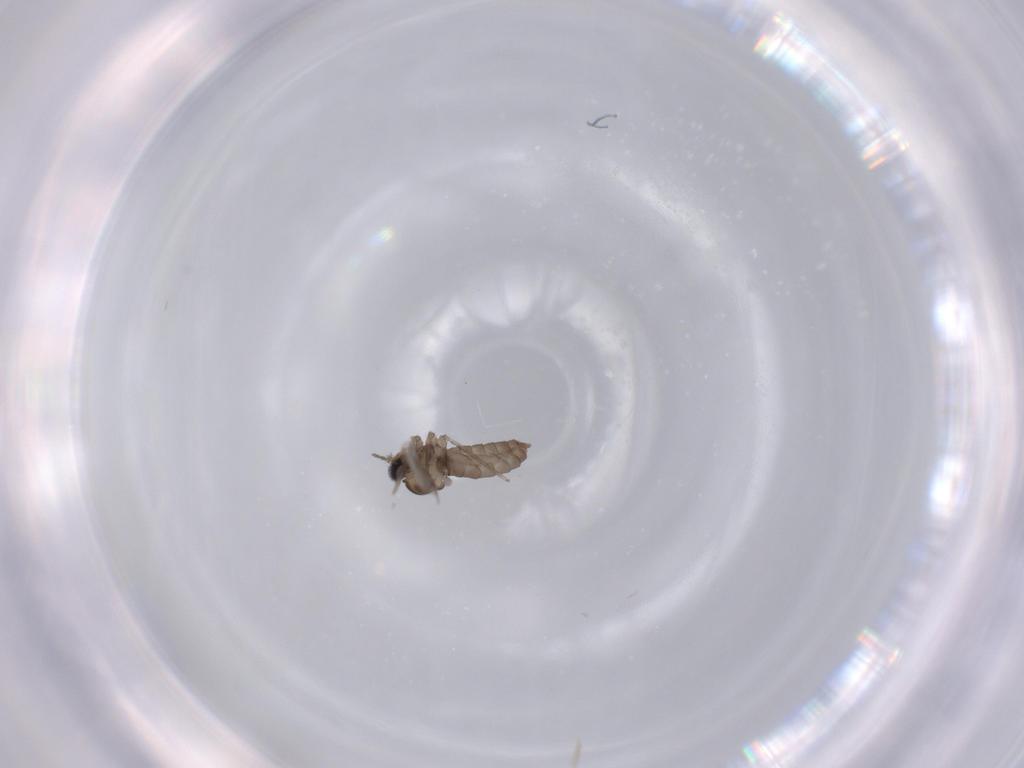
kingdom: Animalia
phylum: Arthropoda
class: Insecta
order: Diptera
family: Cecidomyiidae
